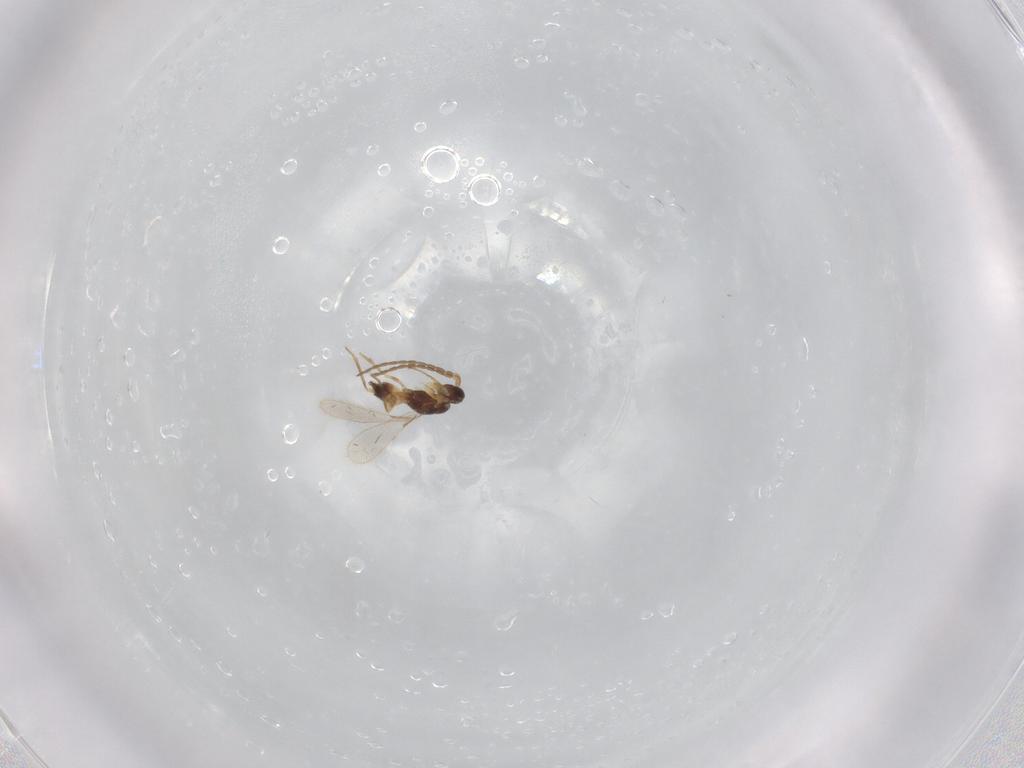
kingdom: Animalia
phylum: Arthropoda
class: Insecta
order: Hymenoptera
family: Mymaridae
